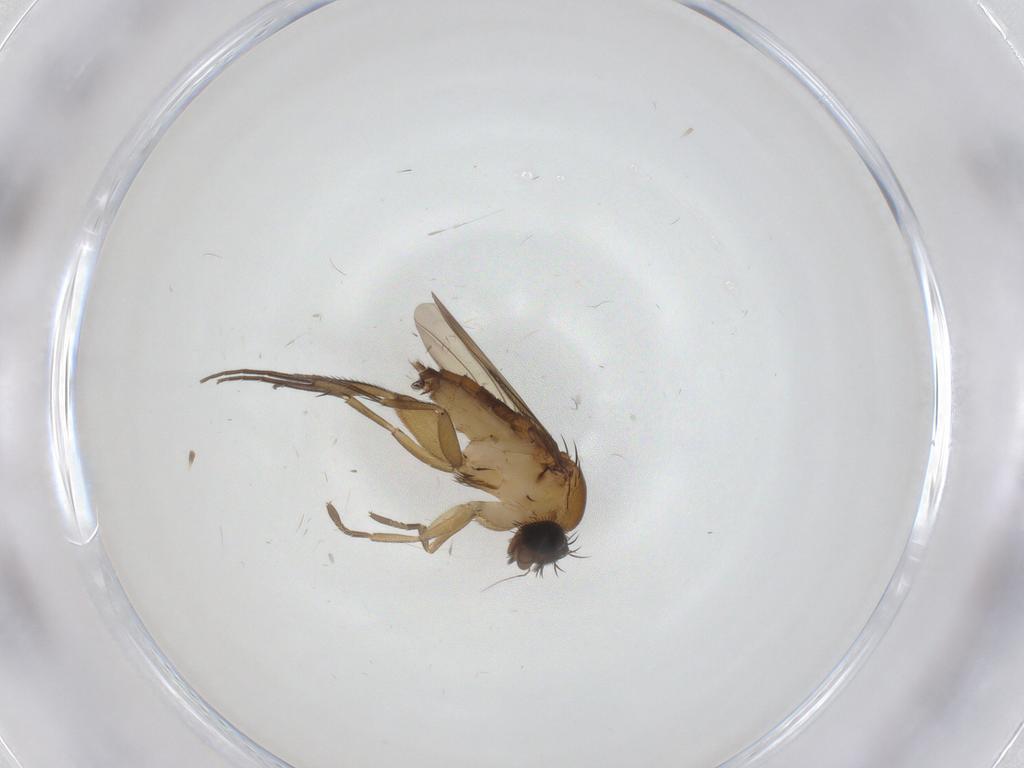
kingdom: Animalia
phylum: Arthropoda
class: Insecta
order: Diptera
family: Phoridae
